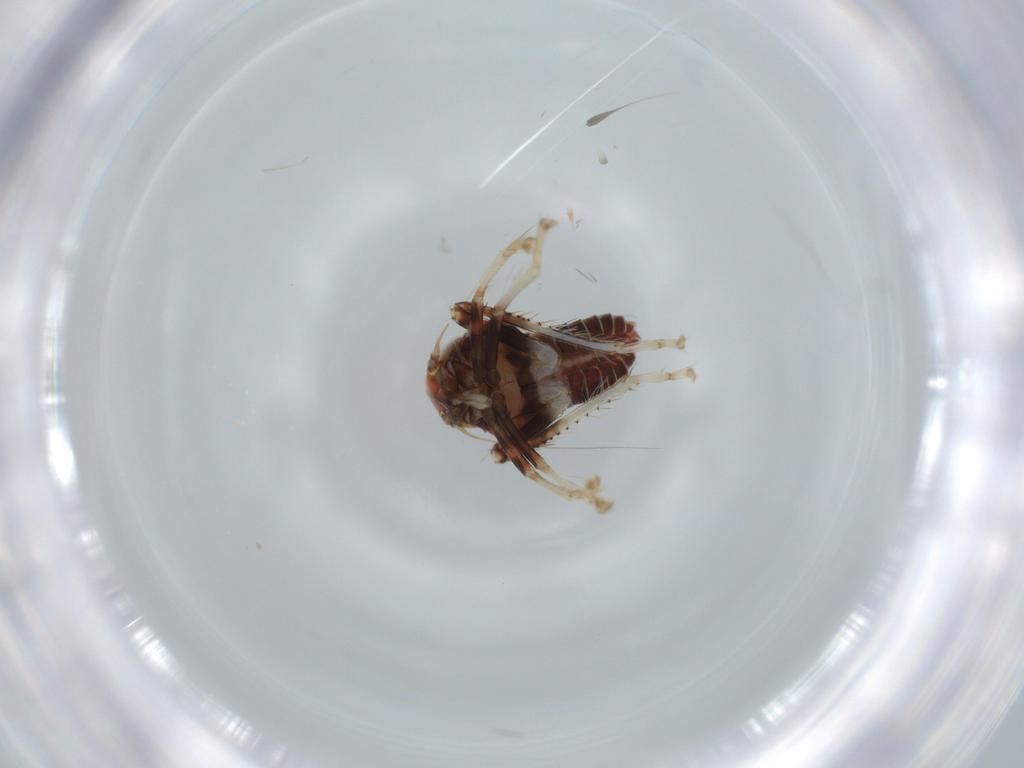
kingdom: Animalia
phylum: Arthropoda
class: Insecta
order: Hemiptera
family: Cicadellidae
